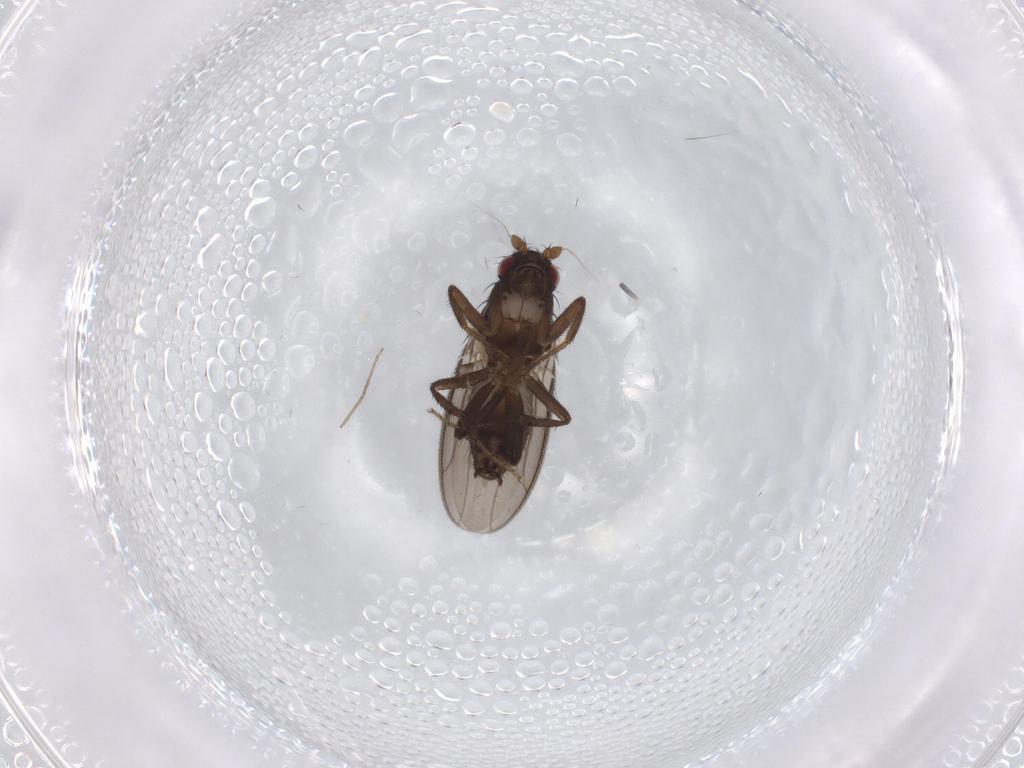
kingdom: Animalia
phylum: Arthropoda
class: Insecta
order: Diptera
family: Sphaeroceridae
